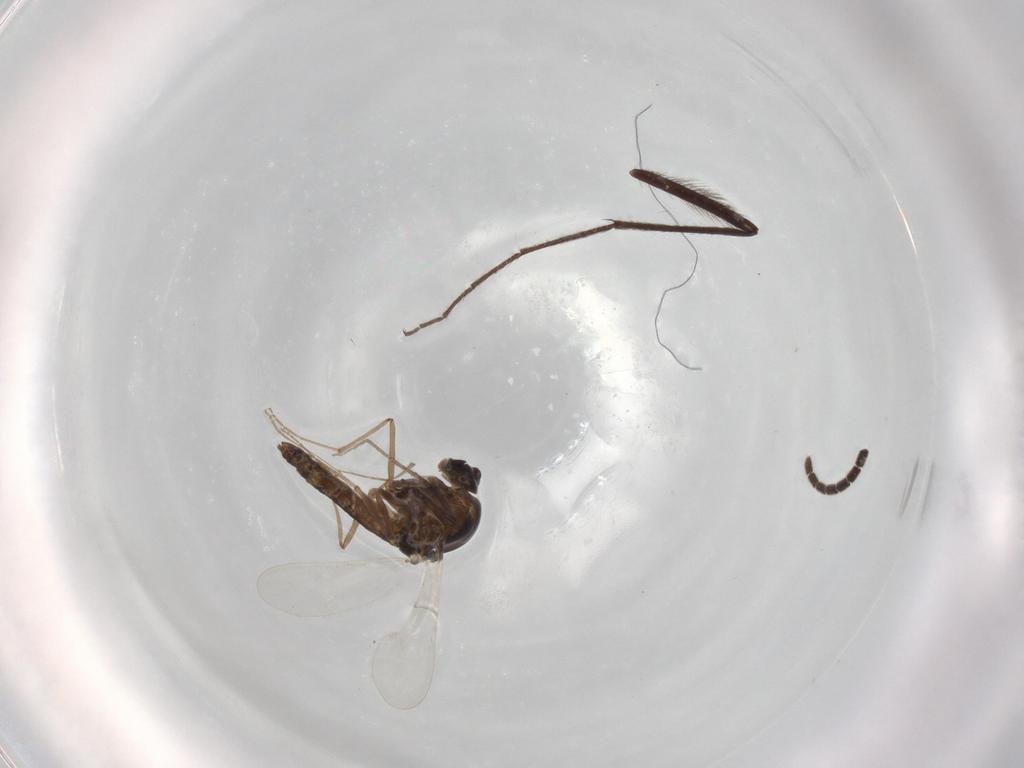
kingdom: Animalia
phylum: Arthropoda
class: Insecta
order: Diptera
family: Chironomidae
